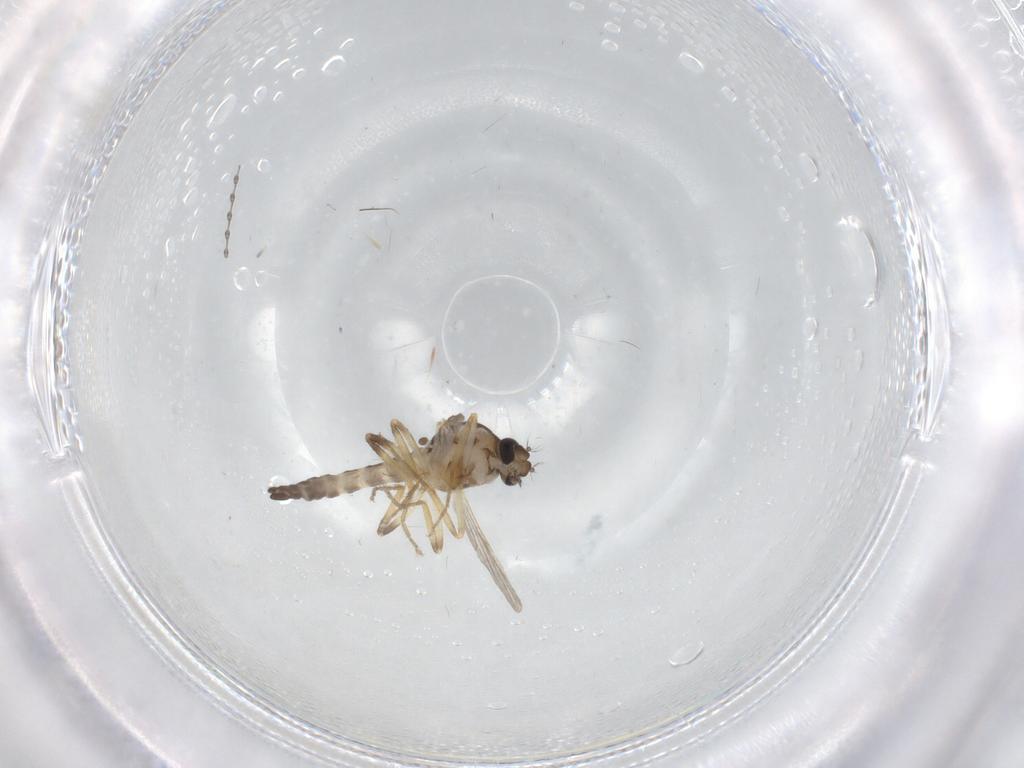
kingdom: Animalia
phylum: Arthropoda
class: Insecta
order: Diptera
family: Ceratopogonidae
